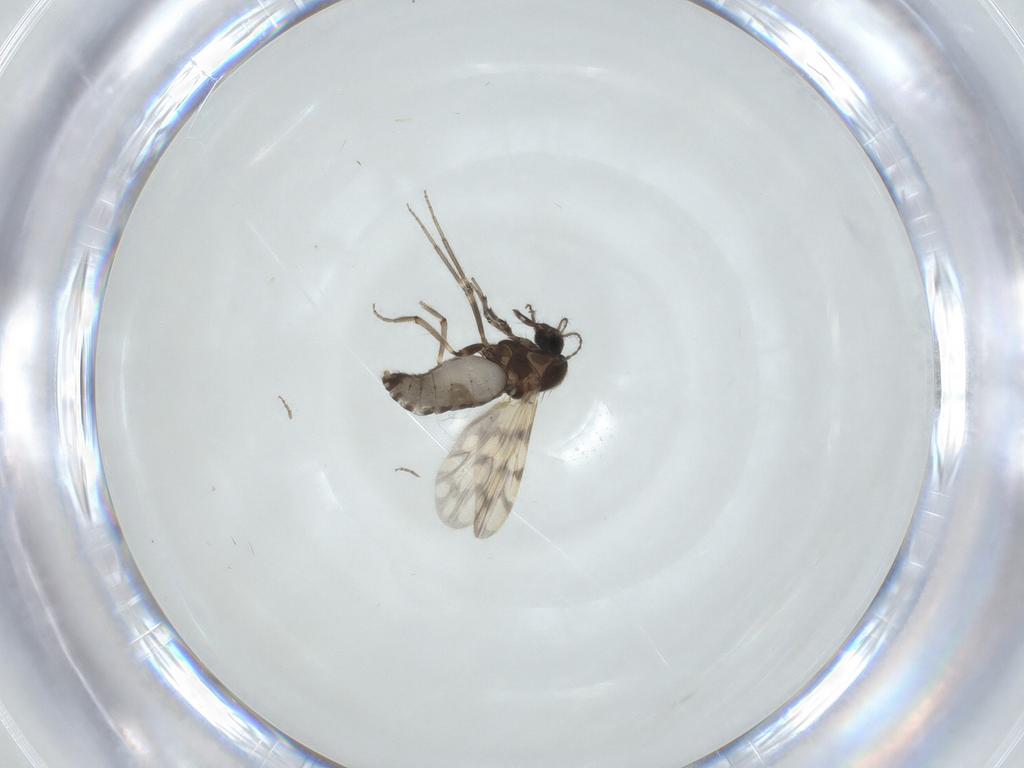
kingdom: Animalia
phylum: Arthropoda
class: Insecta
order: Diptera
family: Ceratopogonidae
